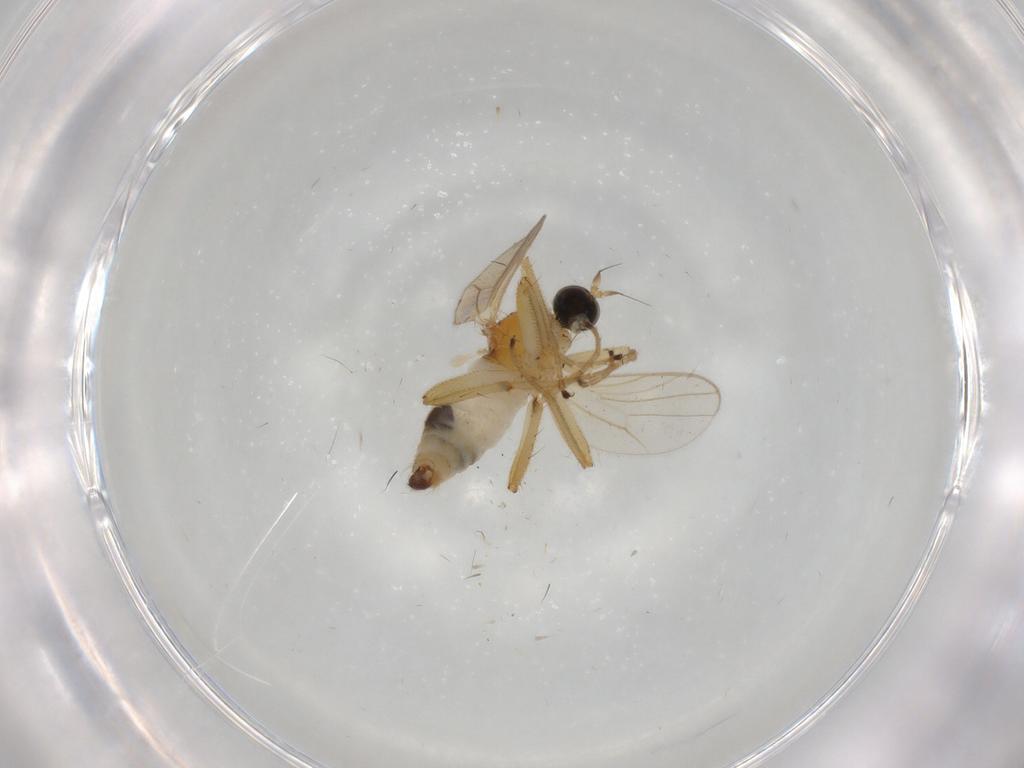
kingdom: Animalia
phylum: Arthropoda
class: Insecta
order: Diptera
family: Hybotidae
